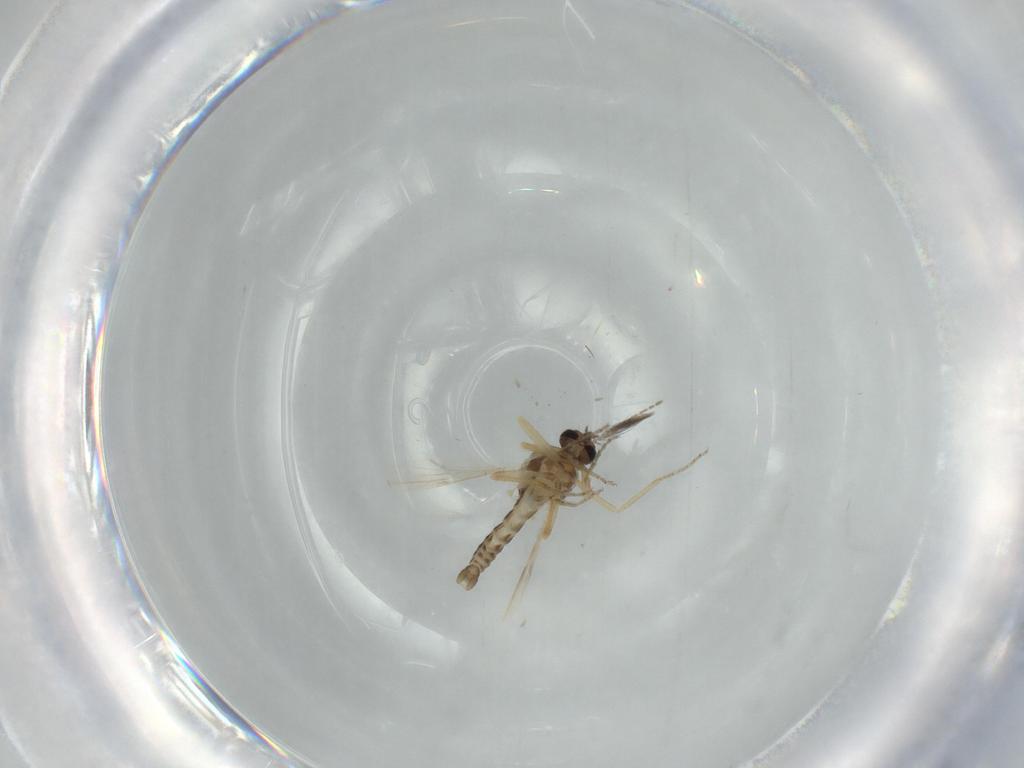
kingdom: Animalia
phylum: Arthropoda
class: Insecta
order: Diptera
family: Ceratopogonidae
